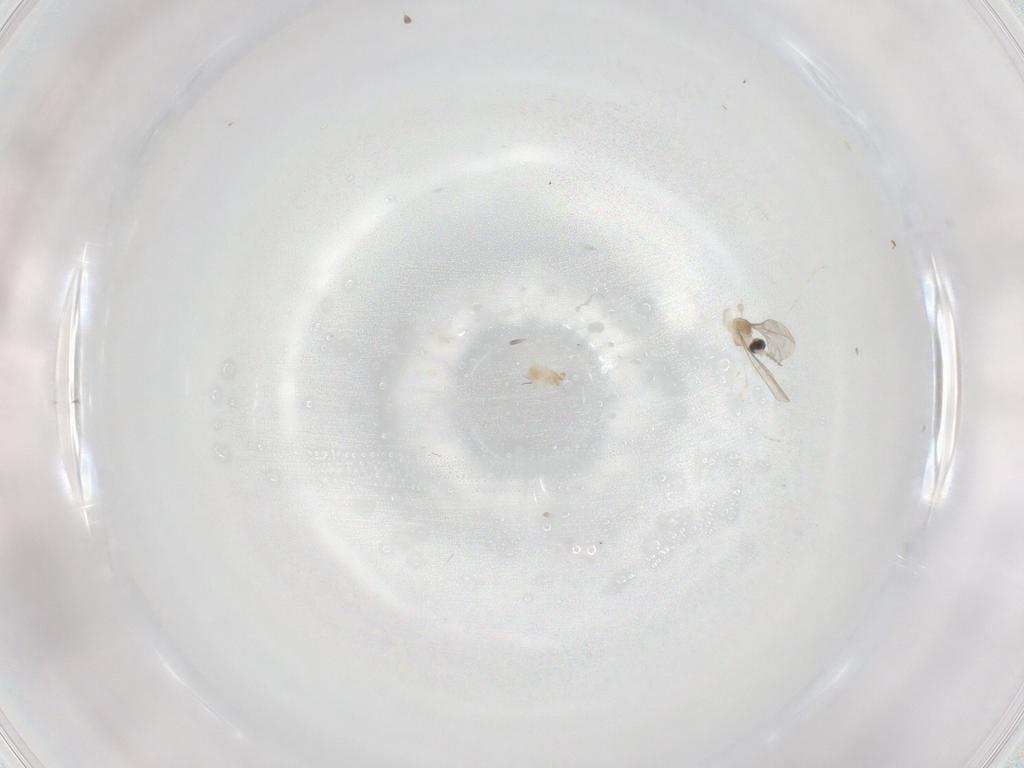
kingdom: Animalia
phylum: Arthropoda
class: Insecta
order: Diptera
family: Cecidomyiidae
